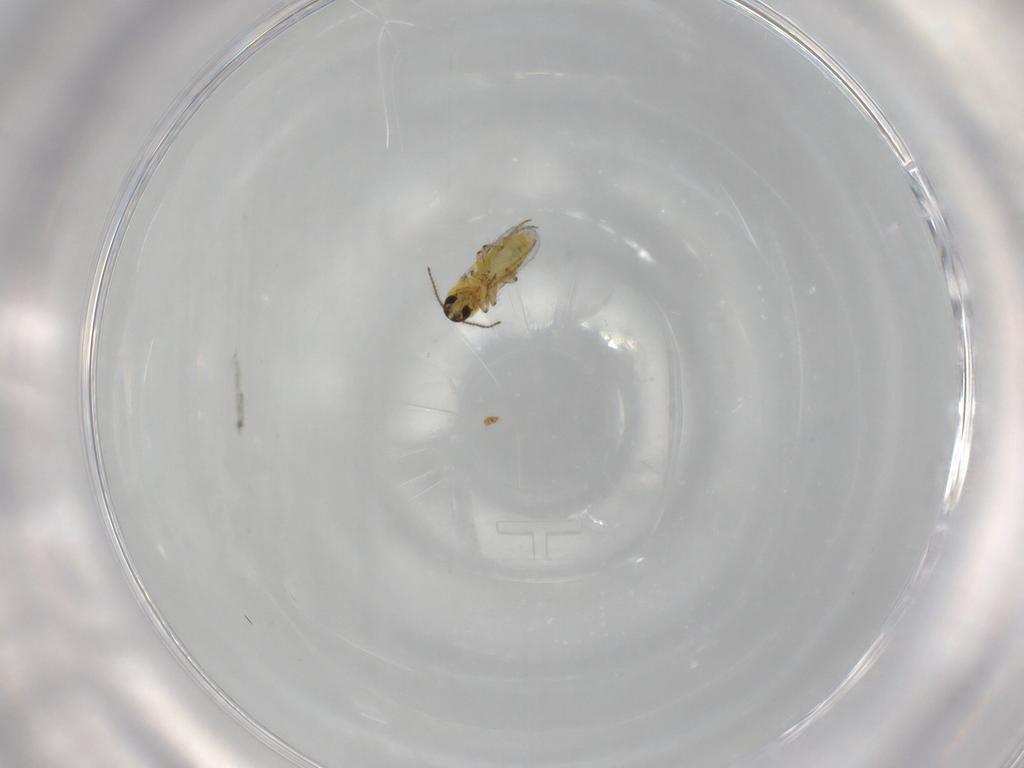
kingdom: Animalia
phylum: Arthropoda
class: Insecta
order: Diptera
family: Ceratopogonidae
